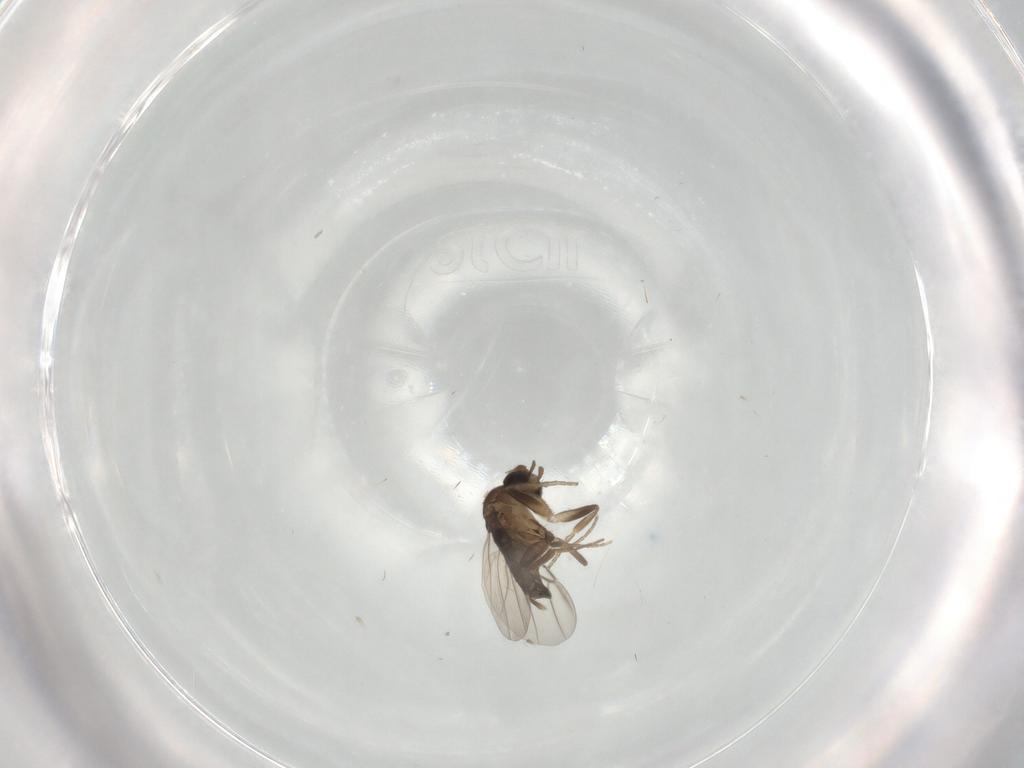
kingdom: Animalia
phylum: Arthropoda
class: Insecta
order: Diptera
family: Phoridae
